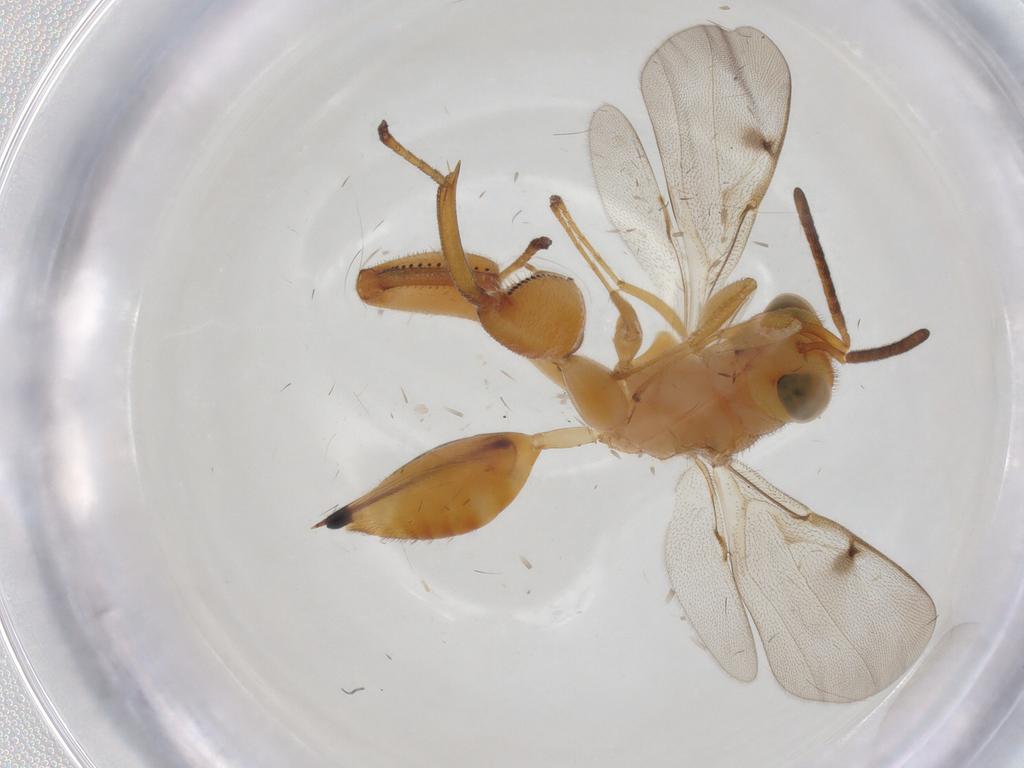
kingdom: Animalia
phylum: Arthropoda
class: Insecta
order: Hymenoptera
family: Chalcididae
